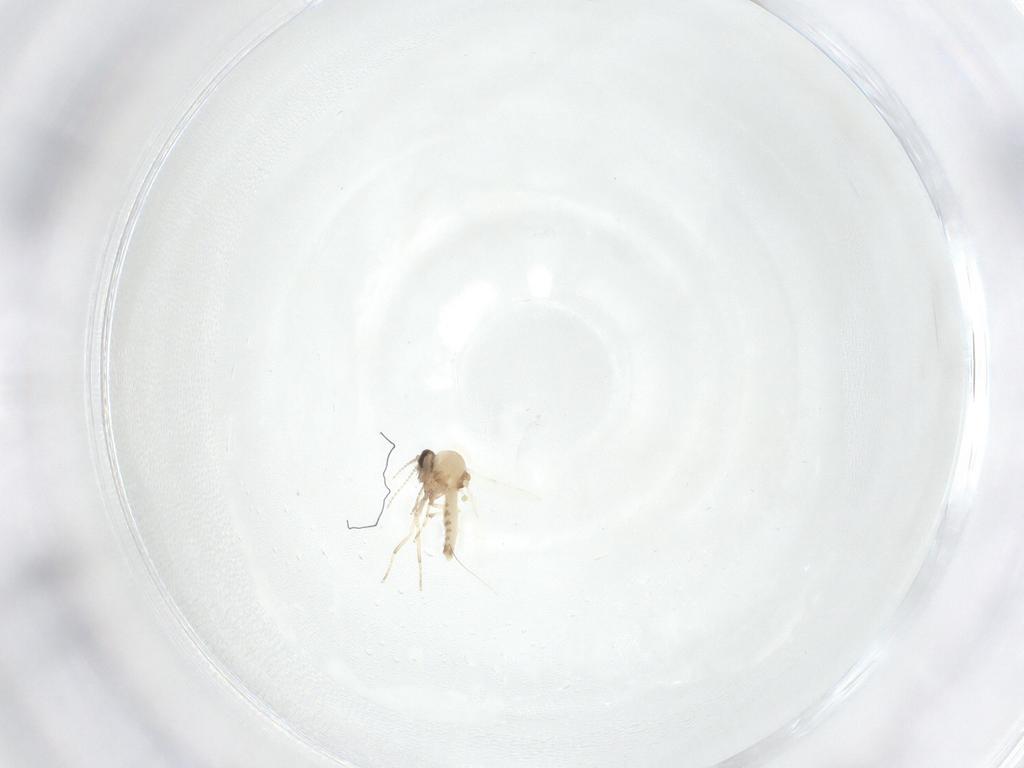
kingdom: Animalia
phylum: Arthropoda
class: Insecta
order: Diptera
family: Ceratopogonidae
